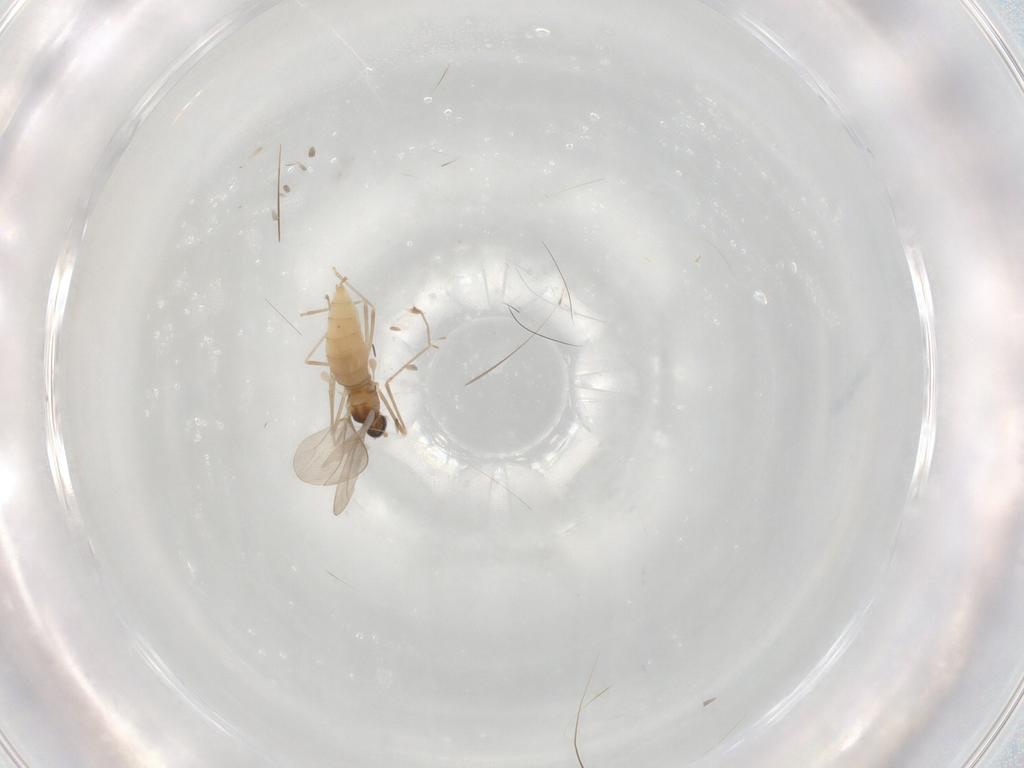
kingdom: Animalia
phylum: Arthropoda
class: Insecta
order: Diptera
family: Cecidomyiidae
